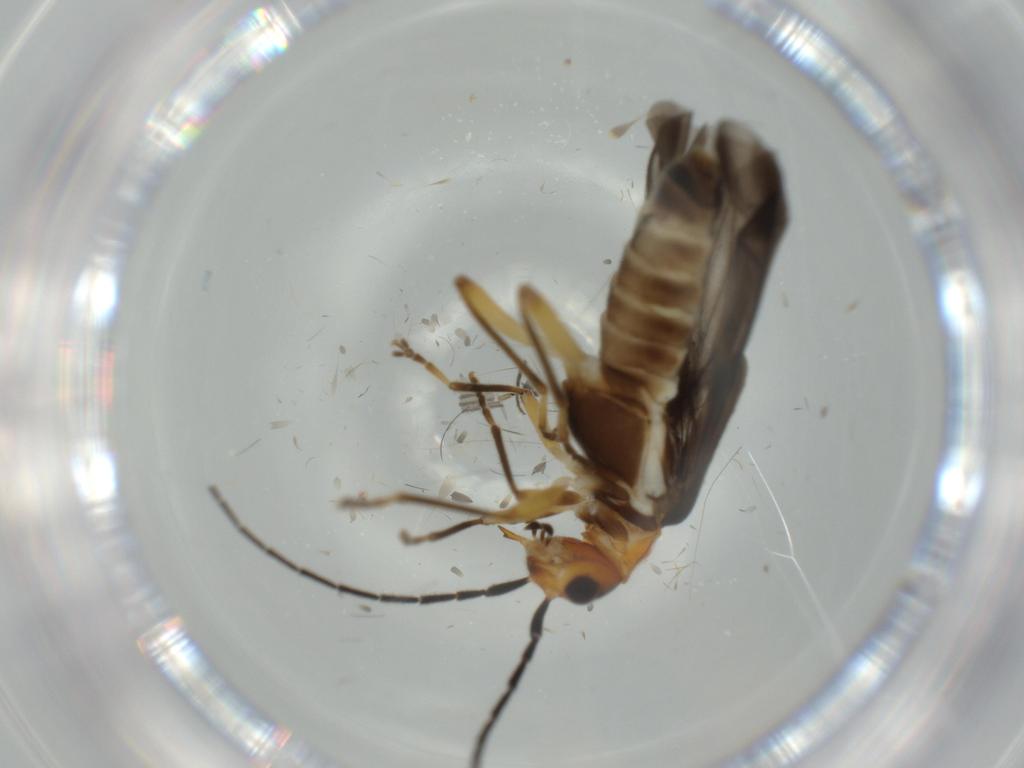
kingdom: Animalia
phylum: Arthropoda
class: Insecta
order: Coleoptera
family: Cantharidae
